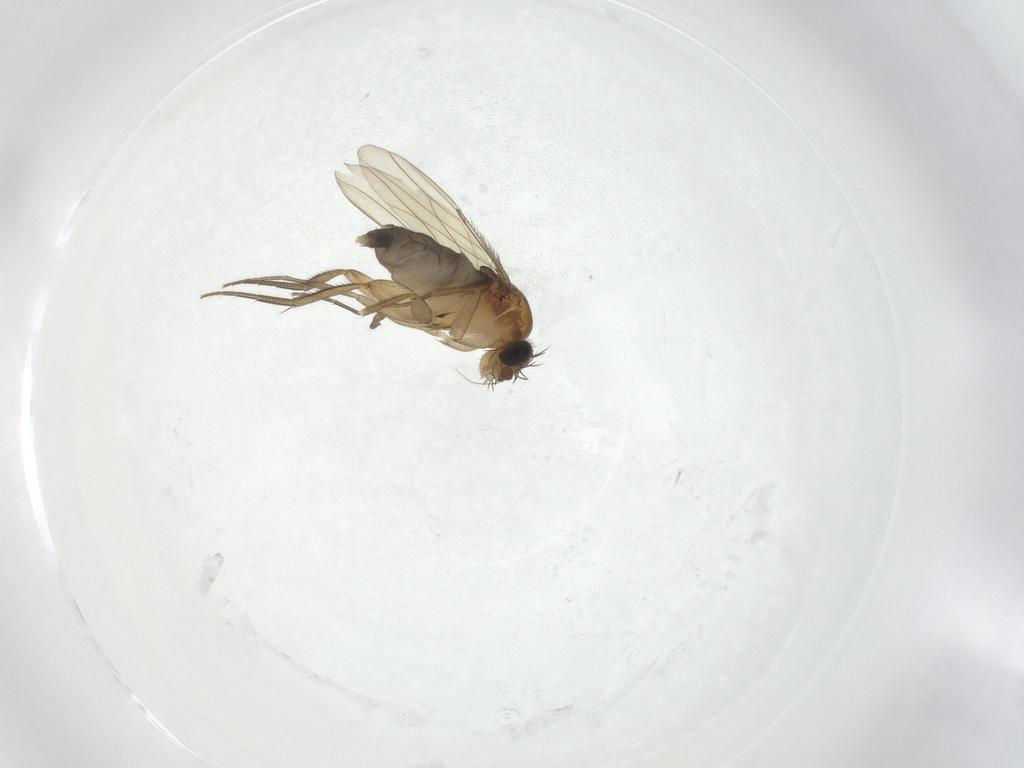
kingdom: Animalia
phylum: Arthropoda
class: Insecta
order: Diptera
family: Phoridae
